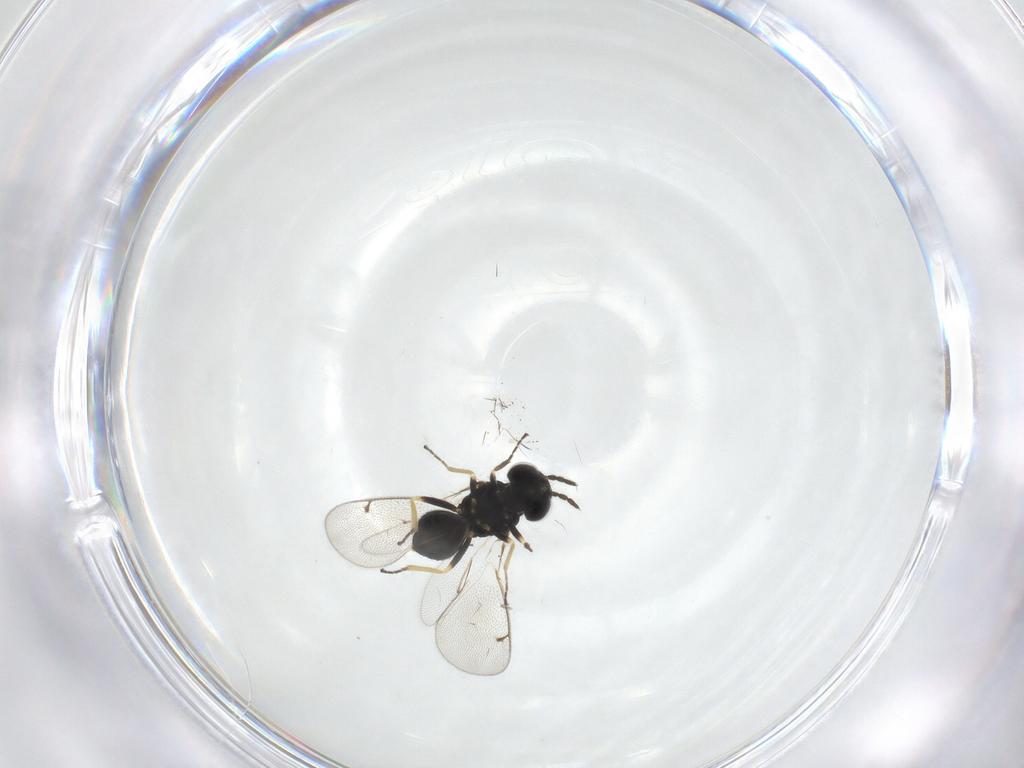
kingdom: Animalia
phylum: Arthropoda
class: Insecta
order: Hymenoptera
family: Eulophidae
